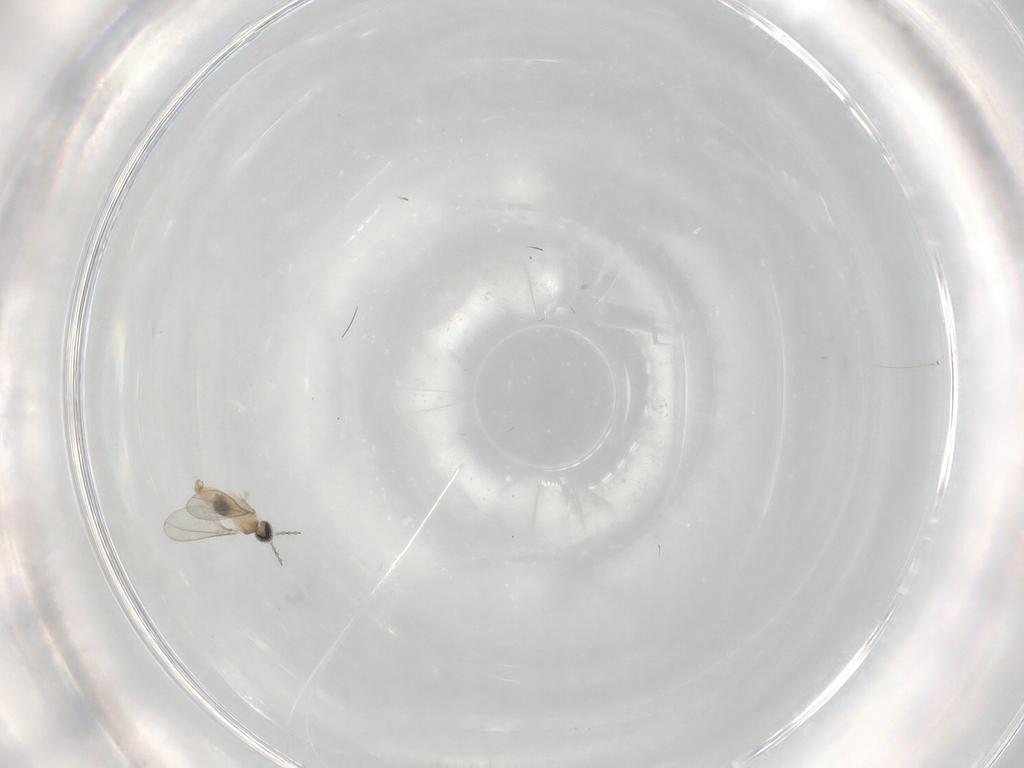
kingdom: Animalia
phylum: Arthropoda
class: Insecta
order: Diptera
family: Cecidomyiidae
